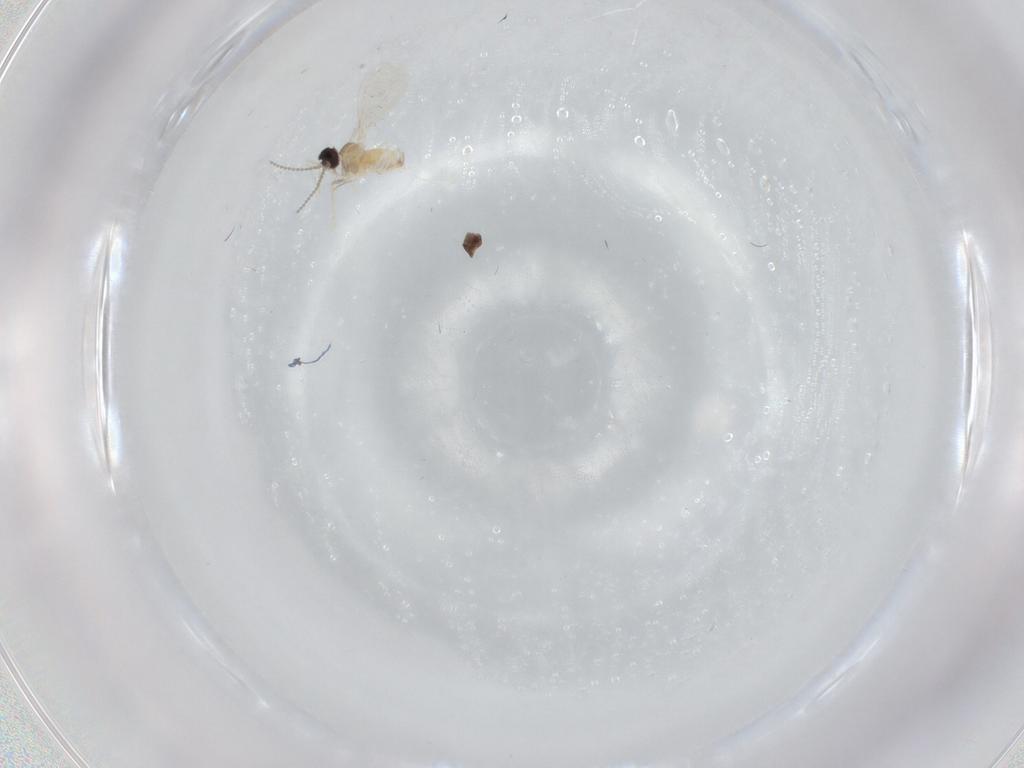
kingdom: Animalia
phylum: Arthropoda
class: Insecta
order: Diptera
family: Cecidomyiidae
